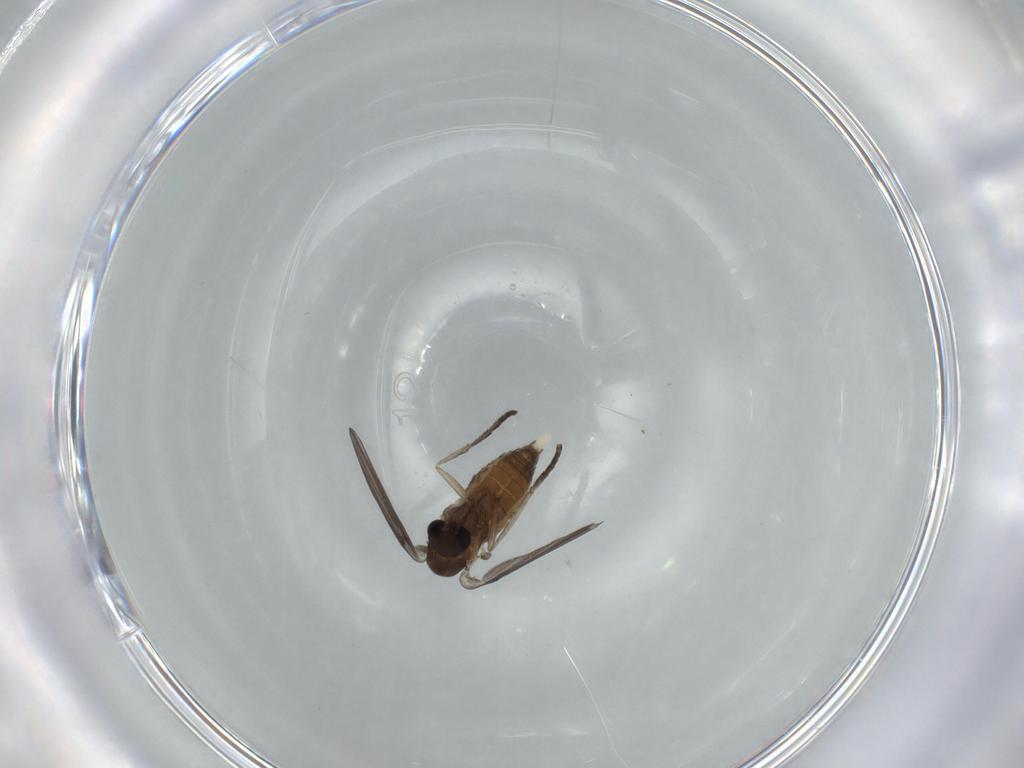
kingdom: Animalia
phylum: Arthropoda
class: Insecta
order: Diptera
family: Psychodidae
